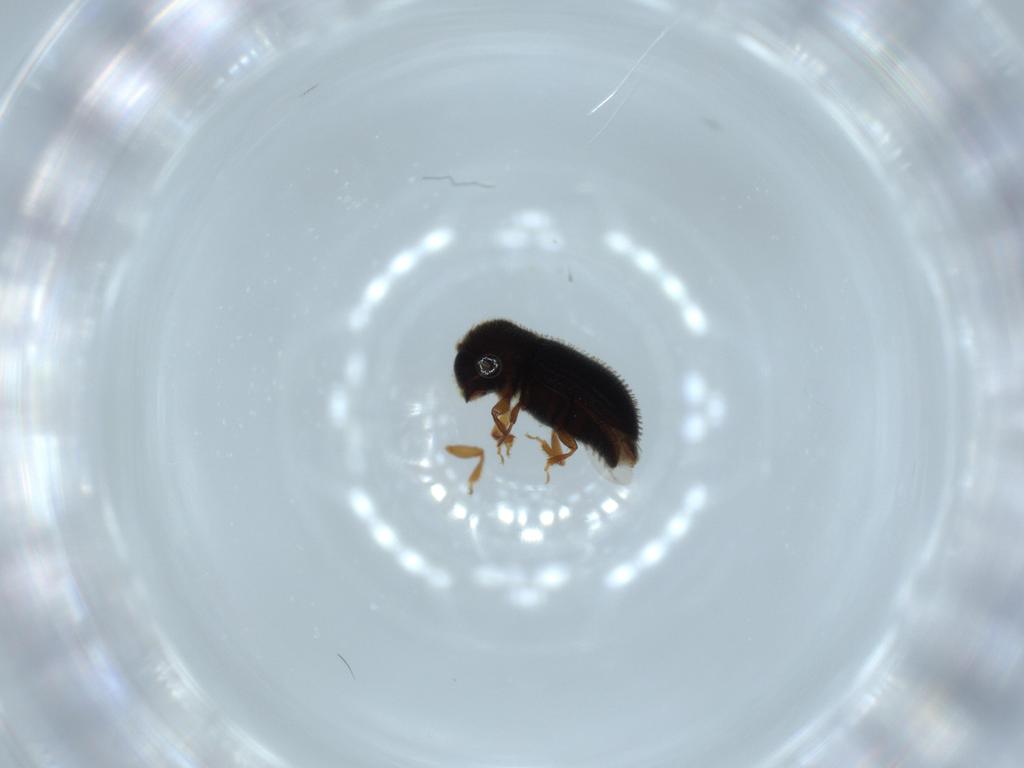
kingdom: Animalia
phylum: Arthropoda
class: Insecta
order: Coleoptera
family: Curculionidae
